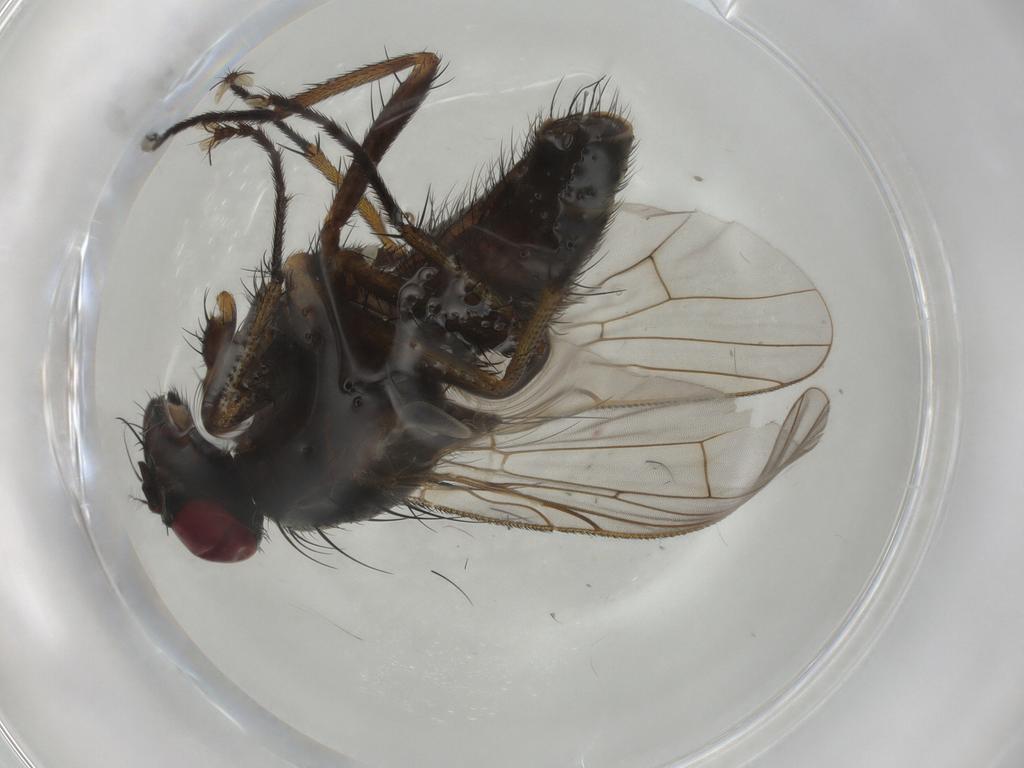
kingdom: Animalia
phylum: Arthropoda
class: Insecta
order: Diptera
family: Muscidae
